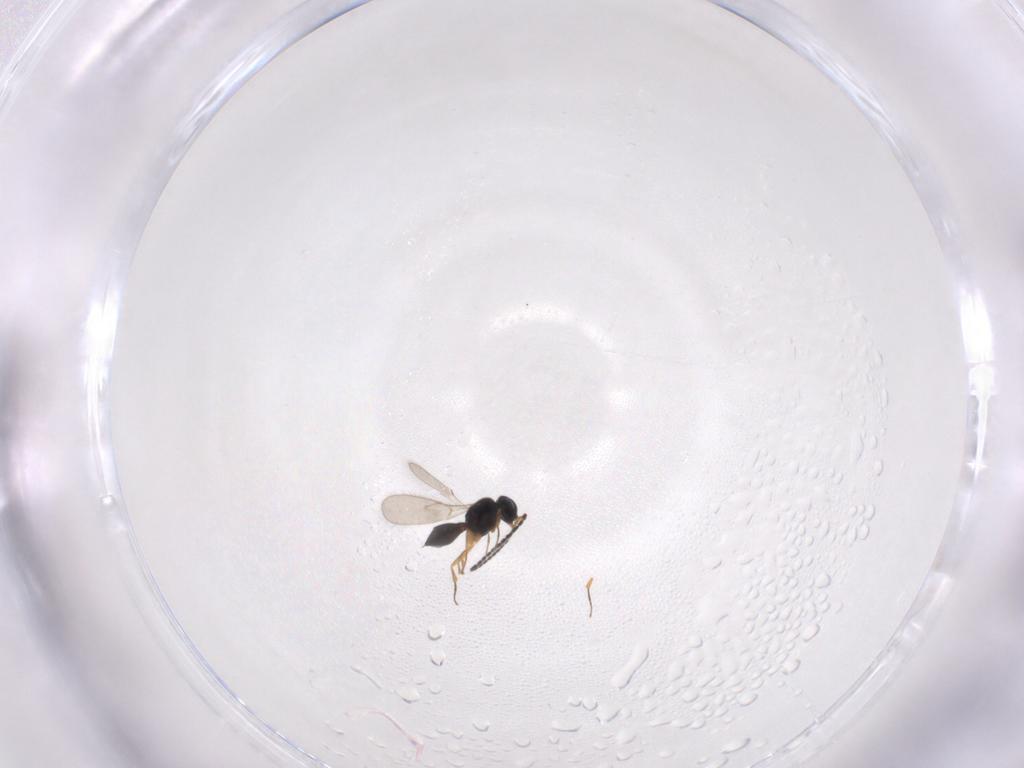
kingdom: Animalia
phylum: Arthropoda
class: Insecta
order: Hymenoptera
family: Scelionidae
